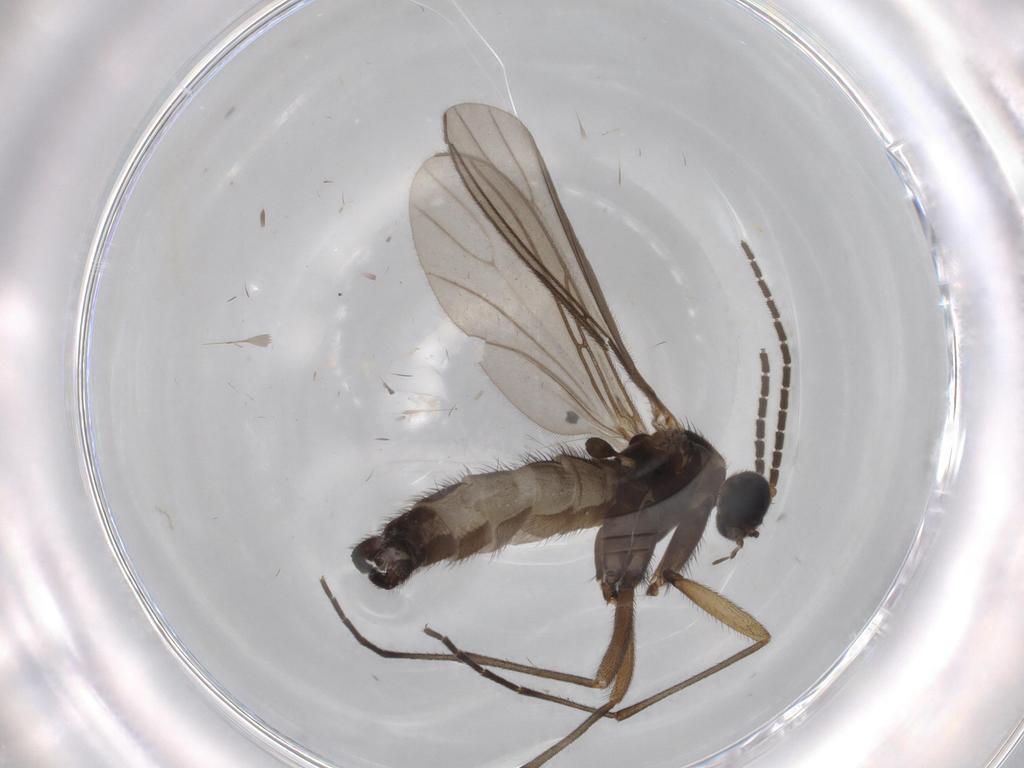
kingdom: Animalia
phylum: Arthropoda
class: Insecta
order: Diptera
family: Sciaridae
